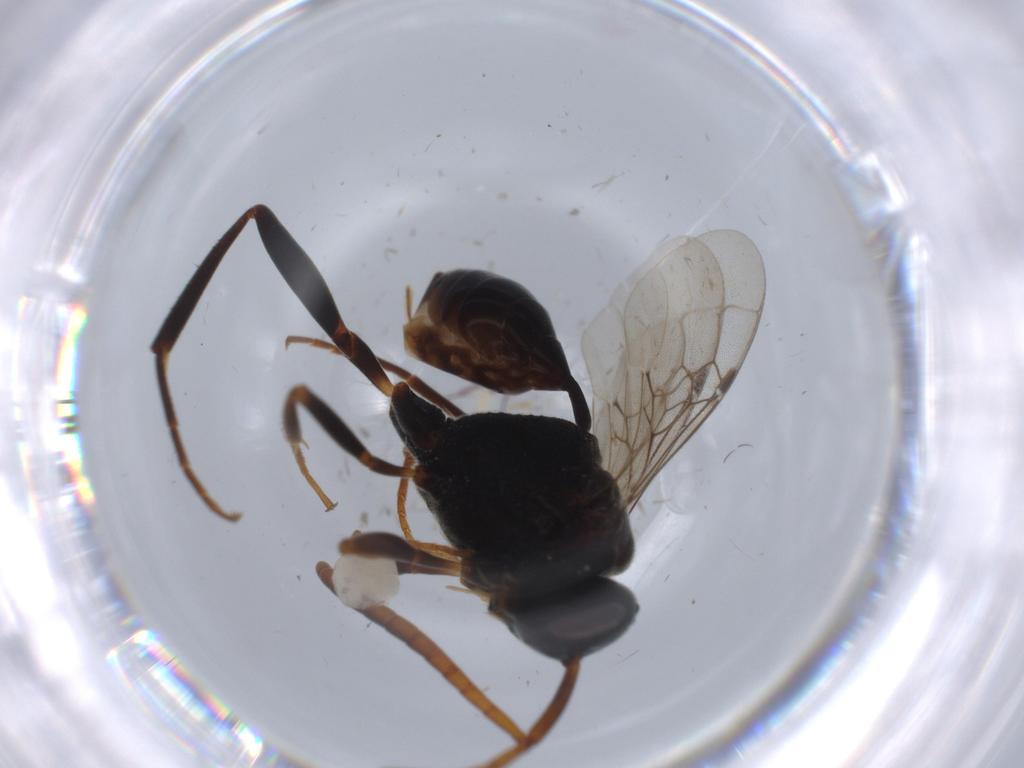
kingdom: Animalia
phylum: Arthropoda
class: Insecta
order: Hymenoptera
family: Evaniidae
